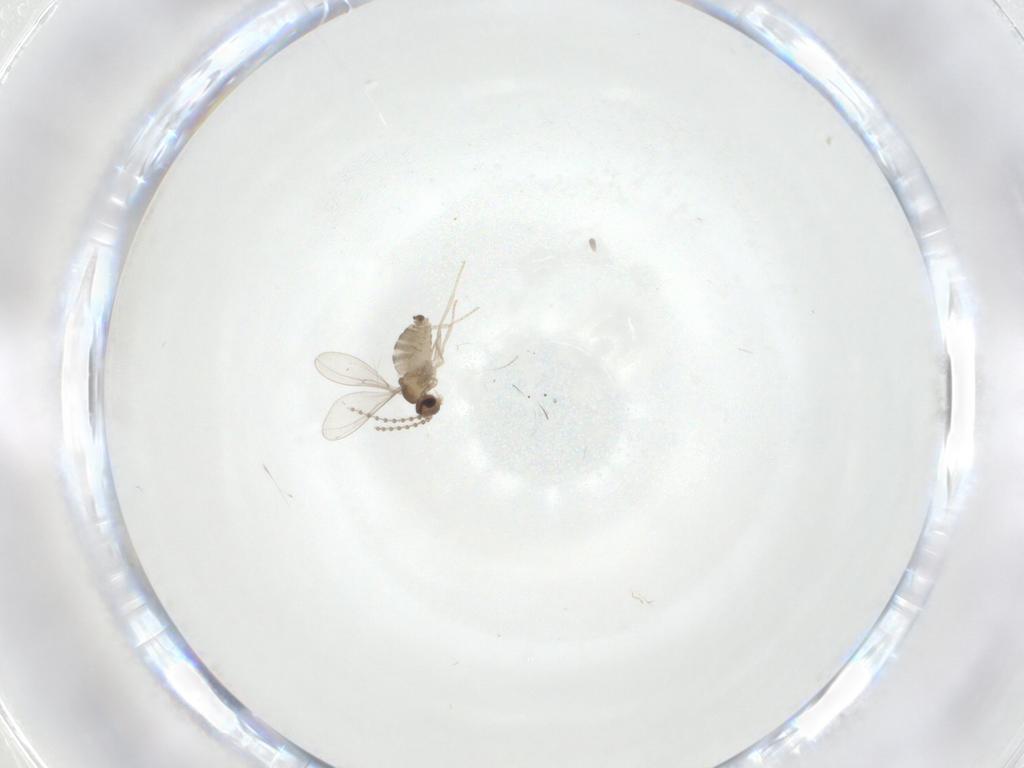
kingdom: Animalia
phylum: Arthropoda
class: Insecta
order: Diptera
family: Cecidomyiidae
